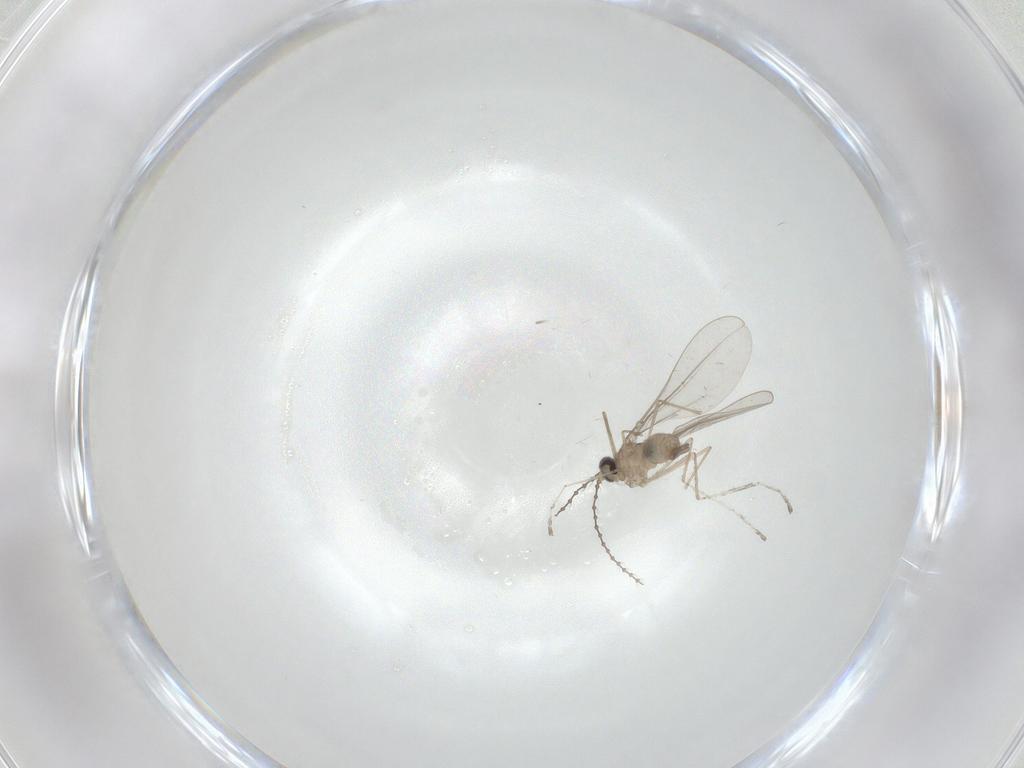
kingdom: Animalia
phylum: Arthropoda
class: Insecta
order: Diptera
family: Cecidomyiidae
